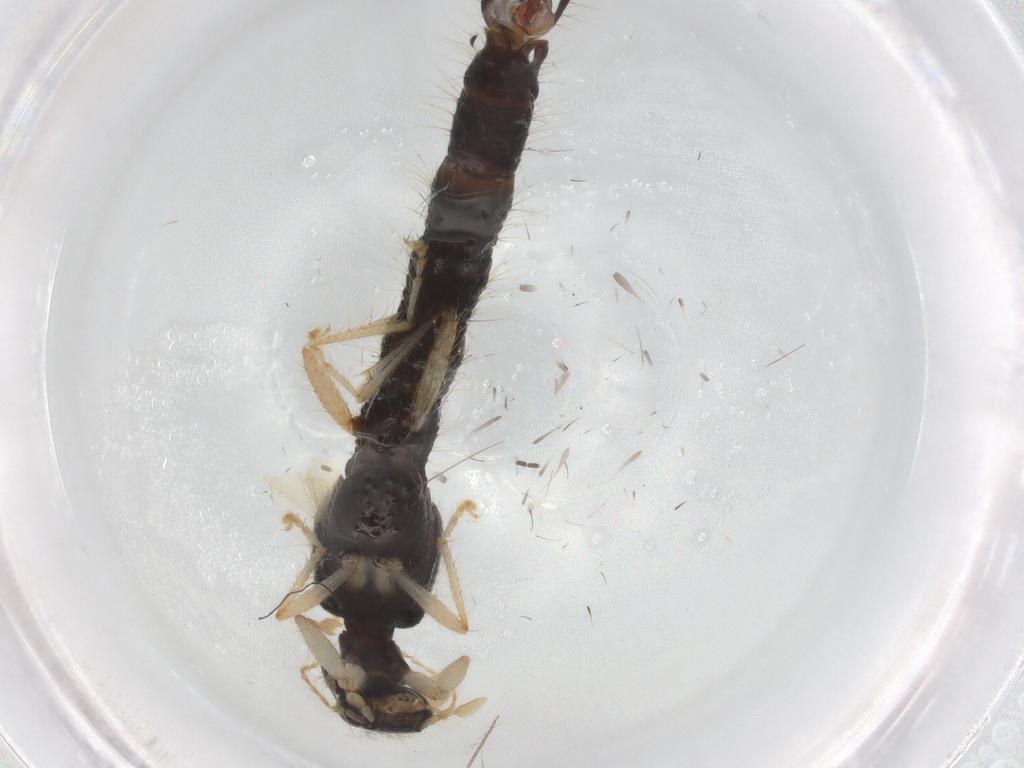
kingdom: Animalia
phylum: Arthropoda
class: Insecta
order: Coleoptera
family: Staphylinidae
